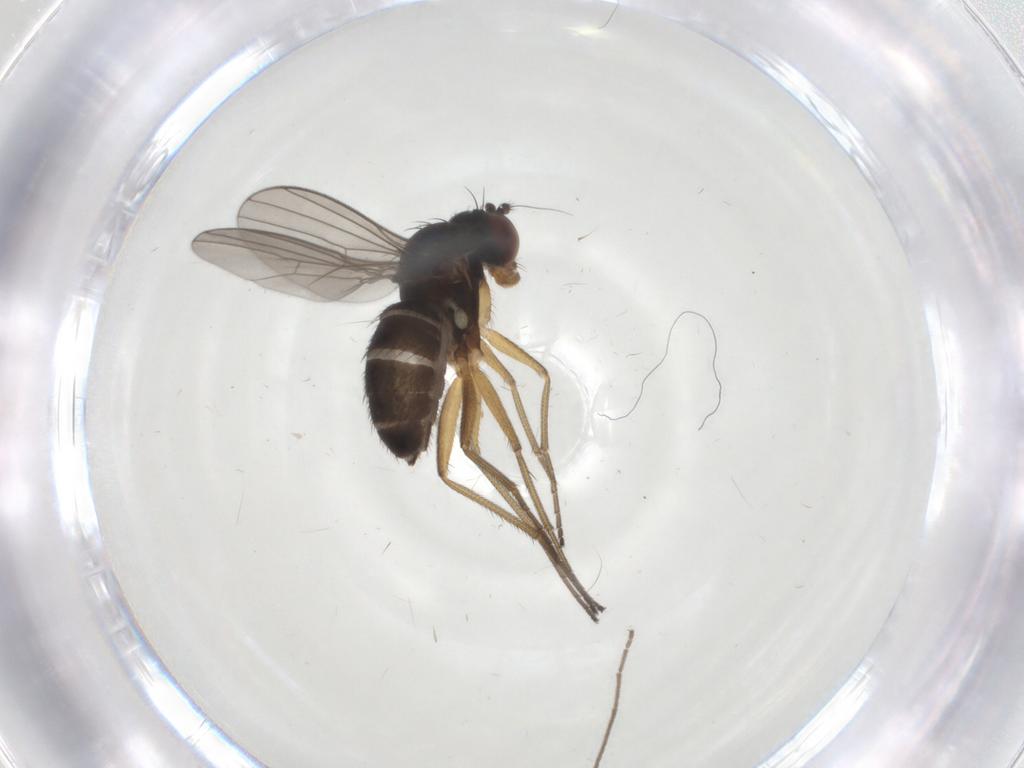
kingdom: Animalia
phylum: Arthropoda
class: Insecta
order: Diptera
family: Dolichopodidae
